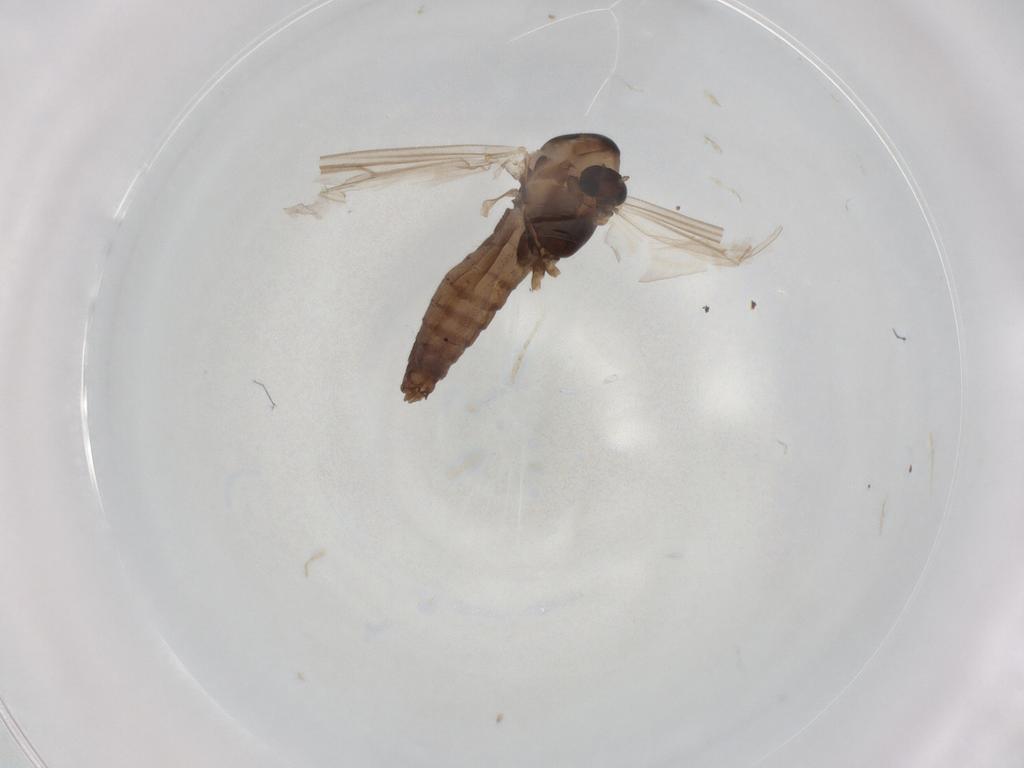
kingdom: Animalia
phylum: Arthropoda
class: Insecta
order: Diptera
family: Chironomidae
